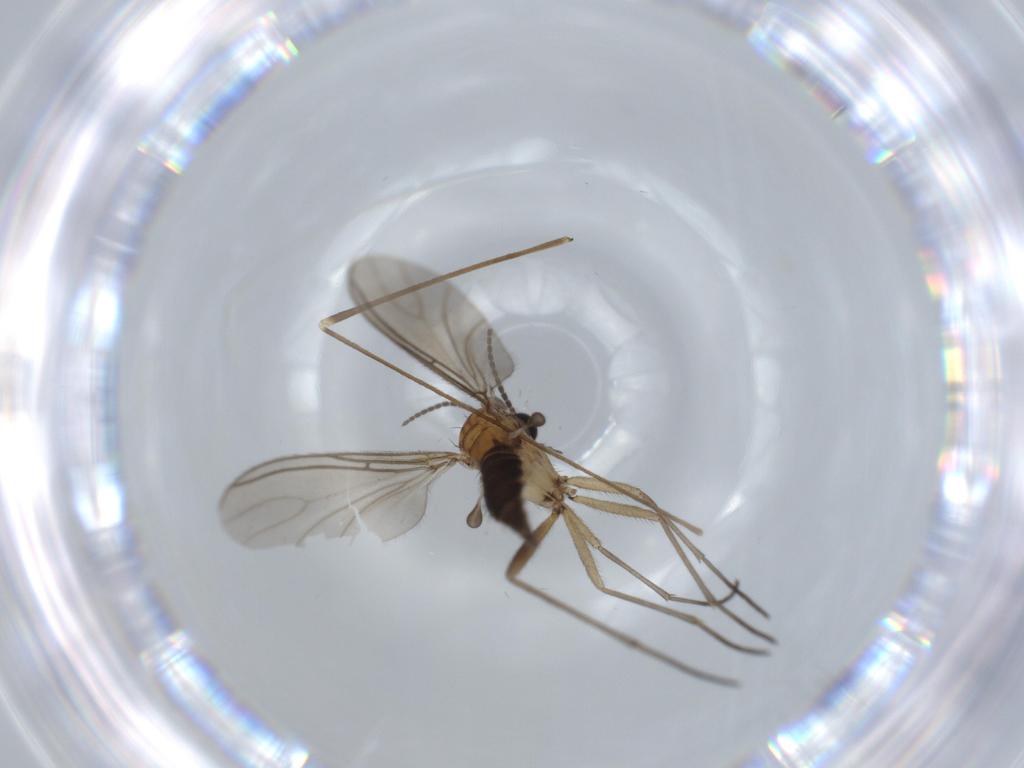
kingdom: Animalia
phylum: Arthropoda
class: Insecta
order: Diptera
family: Sciaridae
